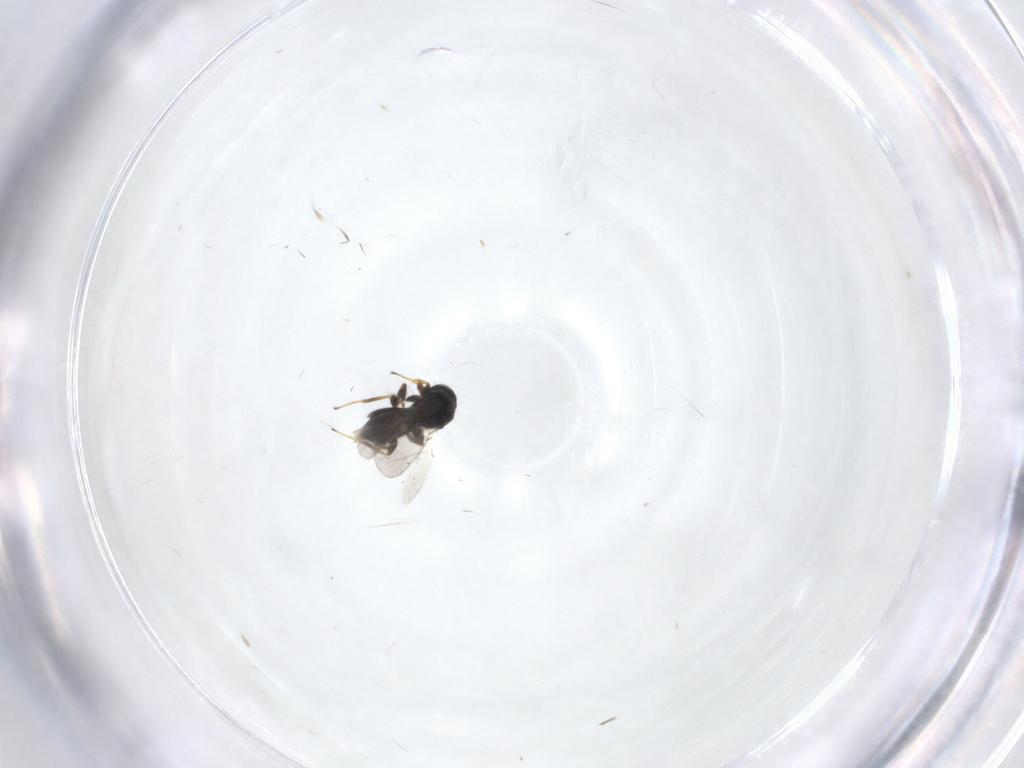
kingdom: Animalia
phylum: Arthropoda
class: Insecta
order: Hymenoptera
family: Platygastridae
